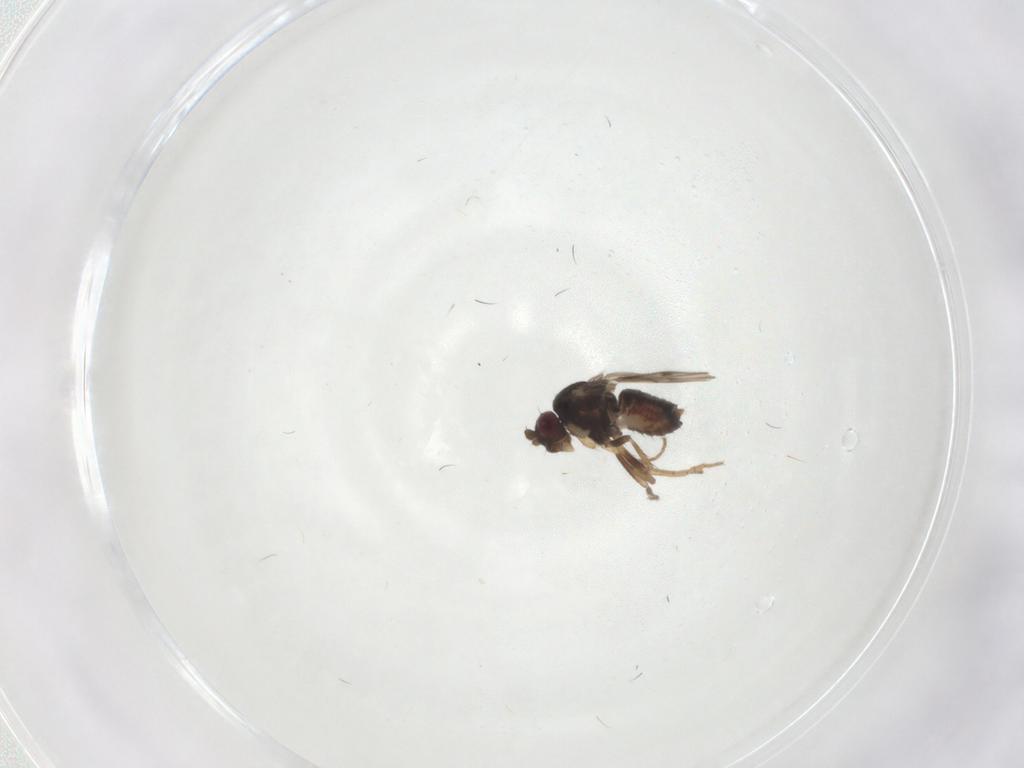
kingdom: Animalia
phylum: Arthropoda
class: Insecta
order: Diptera
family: Sphaeroceridae
